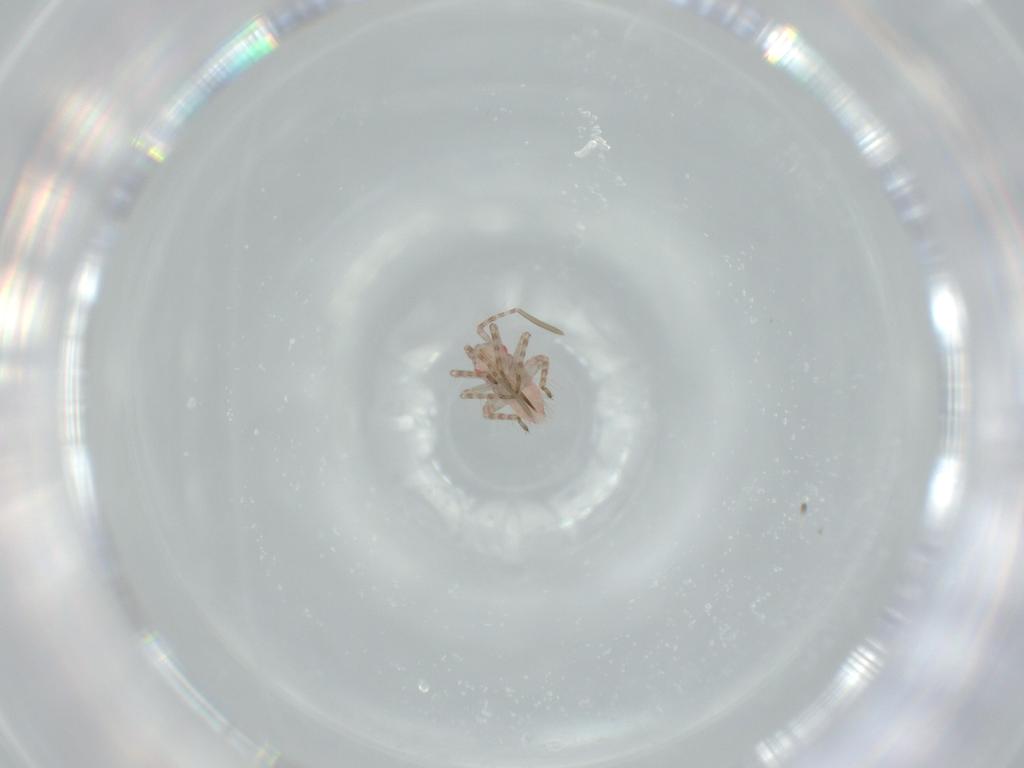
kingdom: Animalia
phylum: Arthropoda
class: Insecta
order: Hemiptera
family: Miridae
